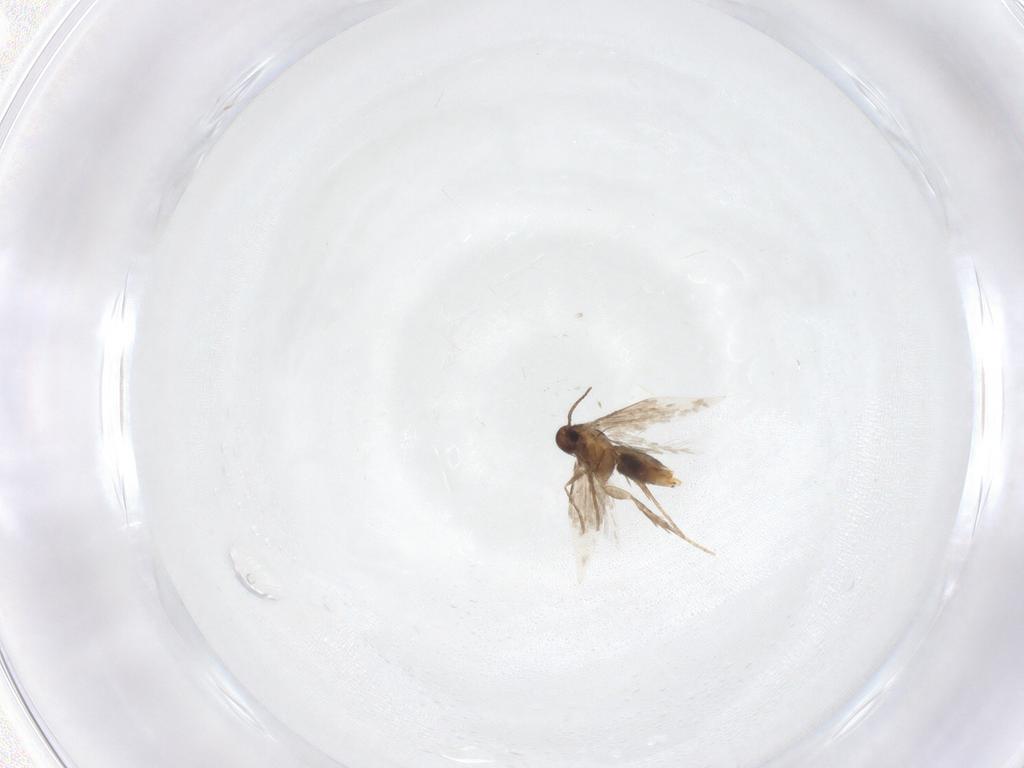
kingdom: Animalia
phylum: Arthropoda
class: Insecta
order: Lepidoptera
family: Heliozelidae
